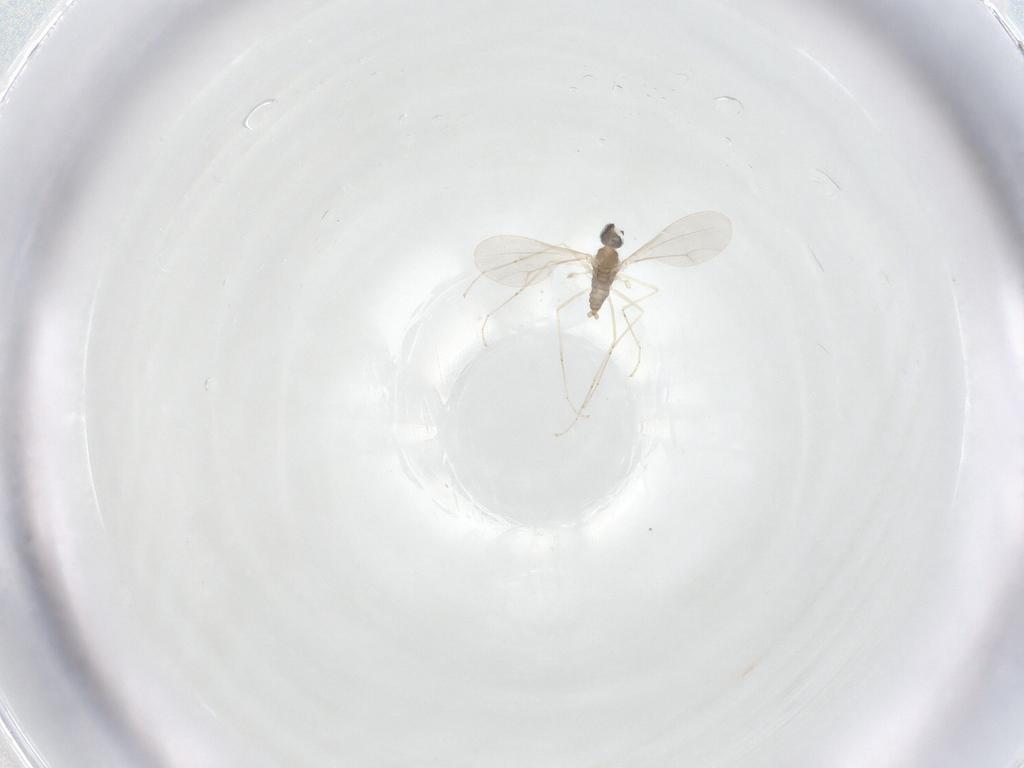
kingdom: Animalia
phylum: Arthropoda
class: Insecta
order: Diptera
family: Cecidomyiidae
